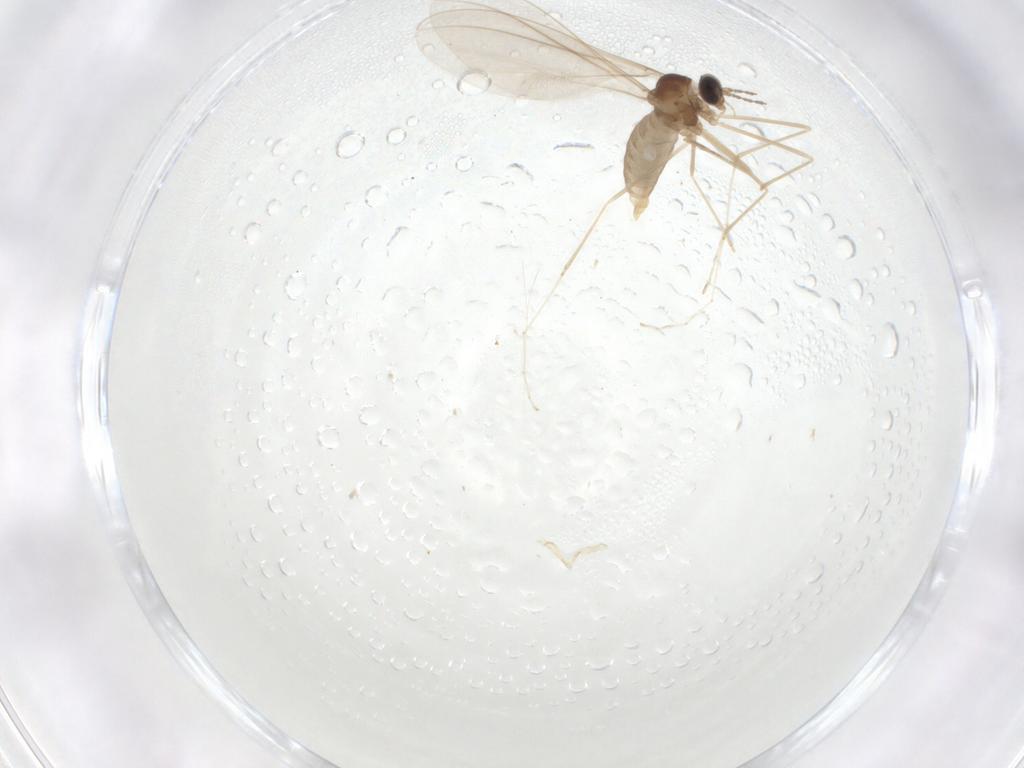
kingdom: Animalia
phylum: Arthropoda
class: Insecta
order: Diptera
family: Cecidomyiidae
